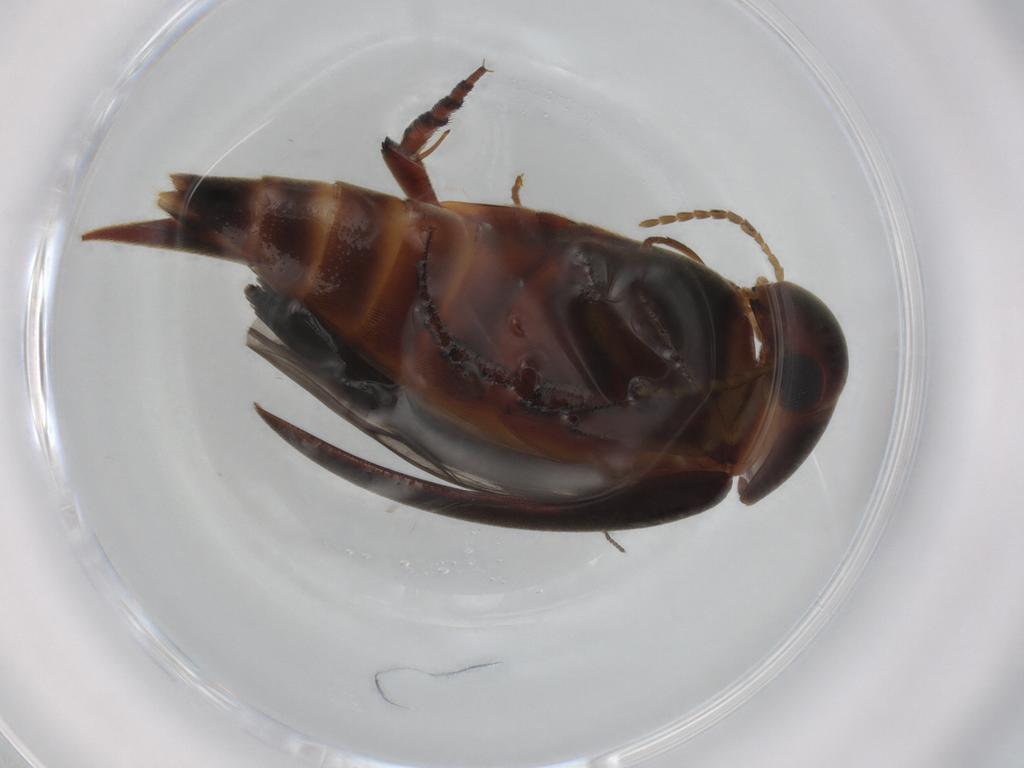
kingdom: Animalia
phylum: Arthropoda
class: Insecta
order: Coleoptera
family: Mordellidae
